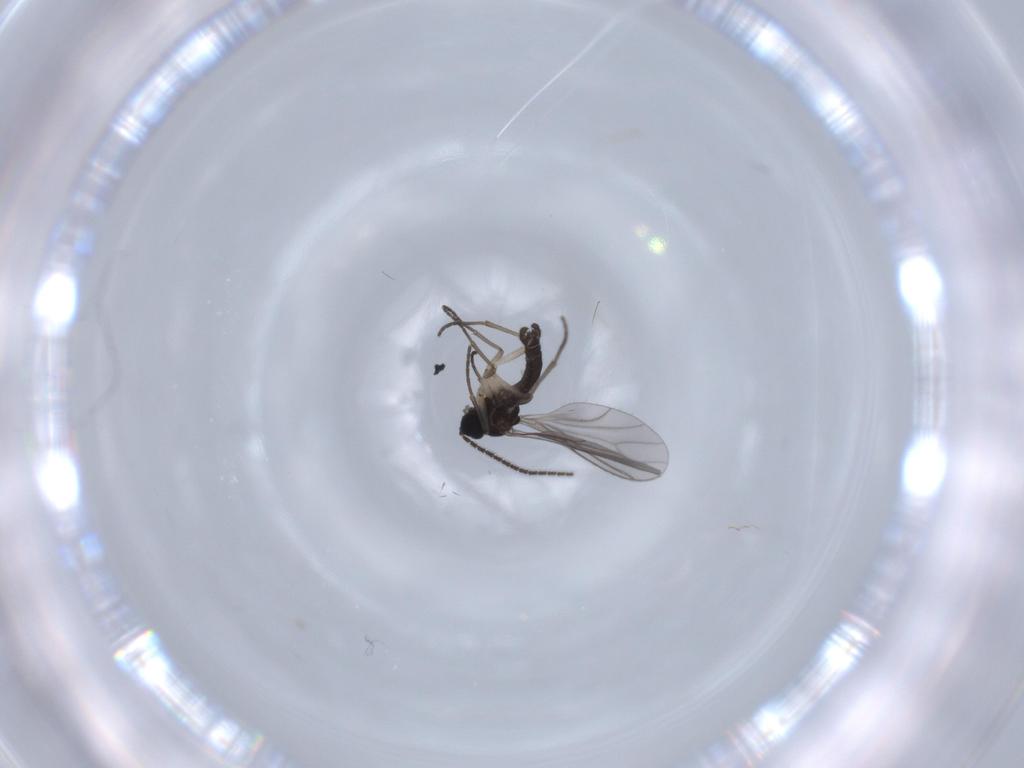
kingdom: Animalia
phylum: Arthropoda
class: Insecta
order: Diptera
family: Sciaridae
